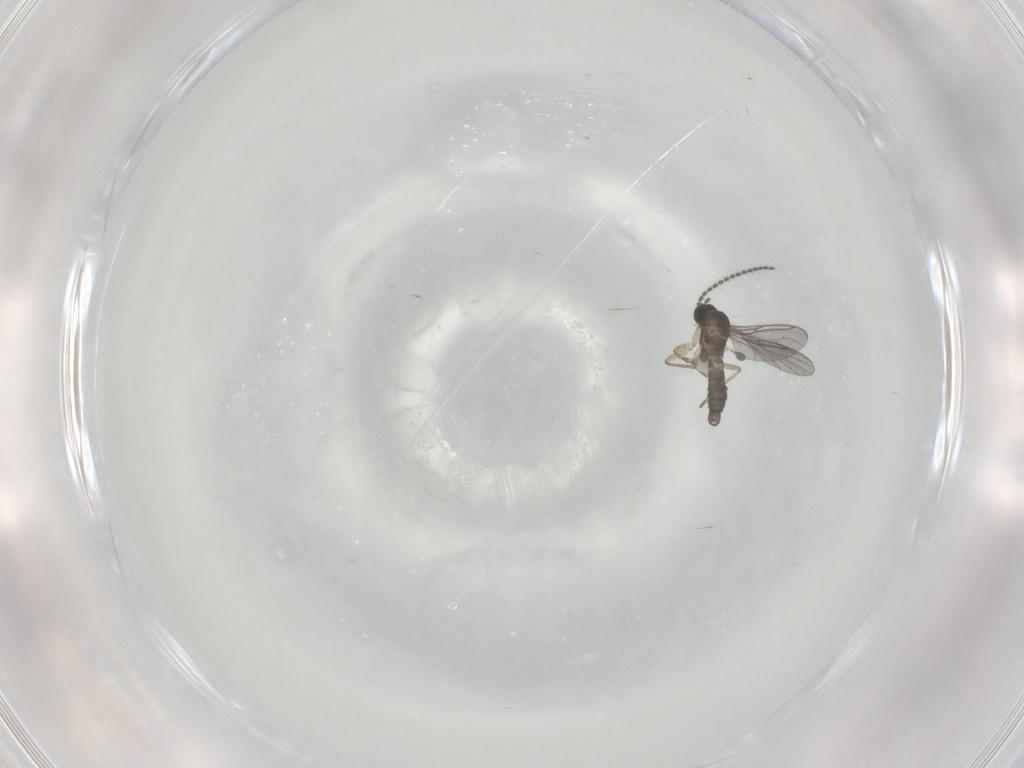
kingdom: Animalia
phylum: Arthropoda
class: Insecta
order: Diptera
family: Sciaridae
